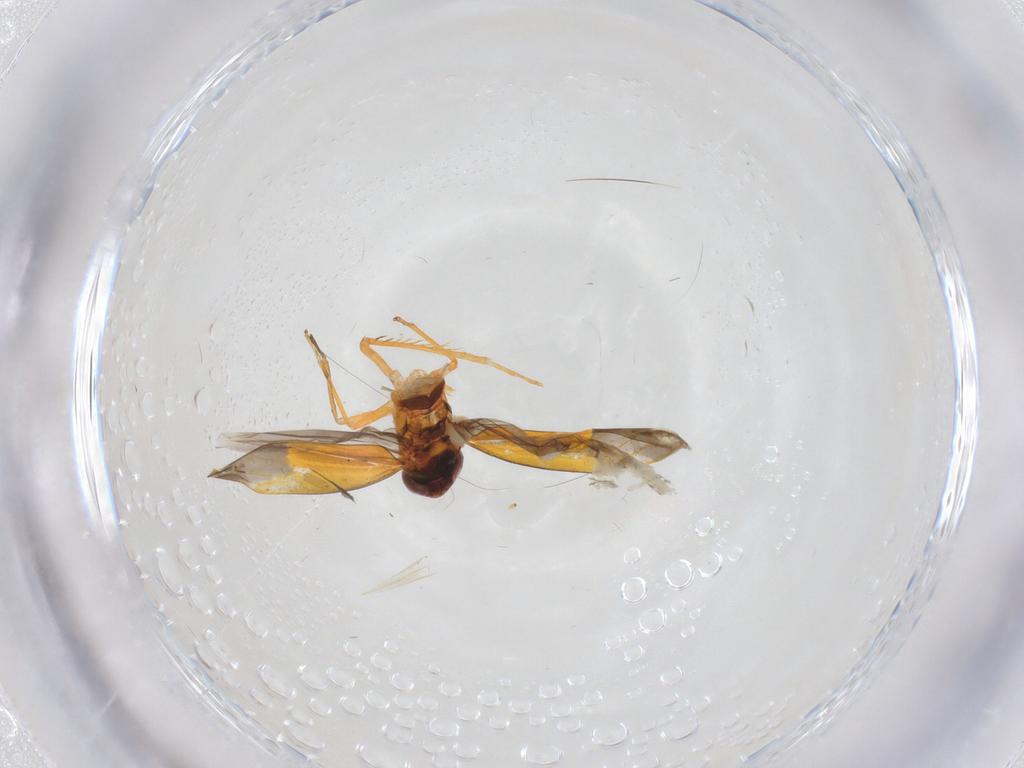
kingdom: Animalia
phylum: Arthropoda
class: Insecta
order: Hemiptera
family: Cicadellidae
